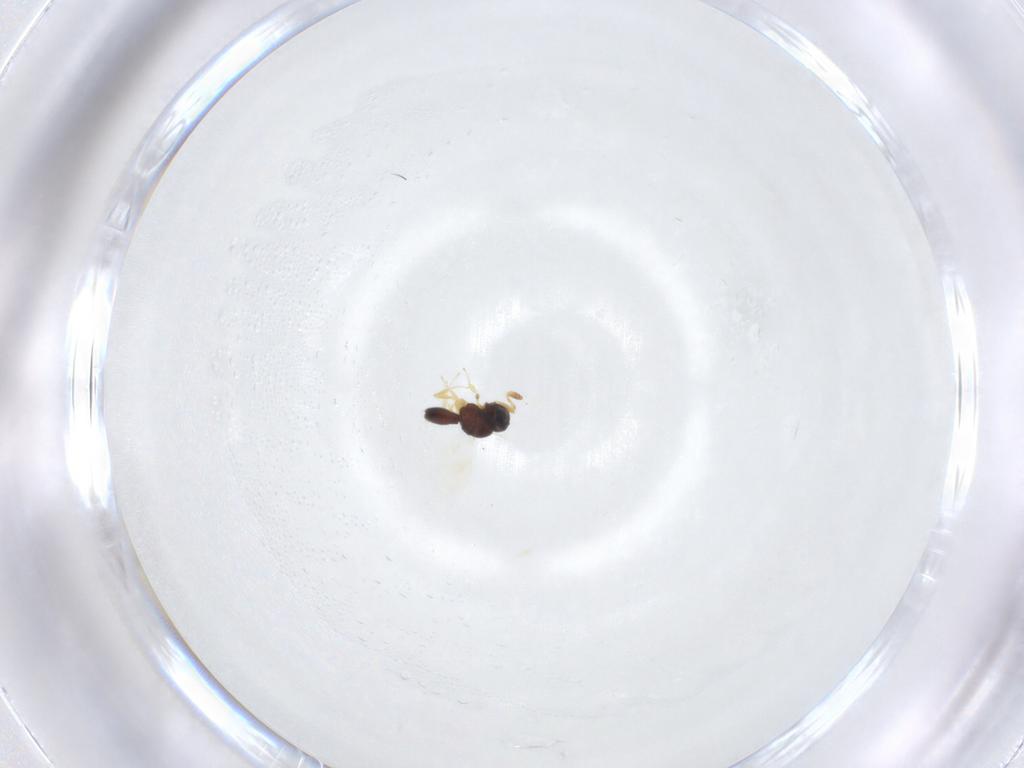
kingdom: Animalia
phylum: Arthropoda
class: Insecta
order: Hymenoptera
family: Scelionidae
